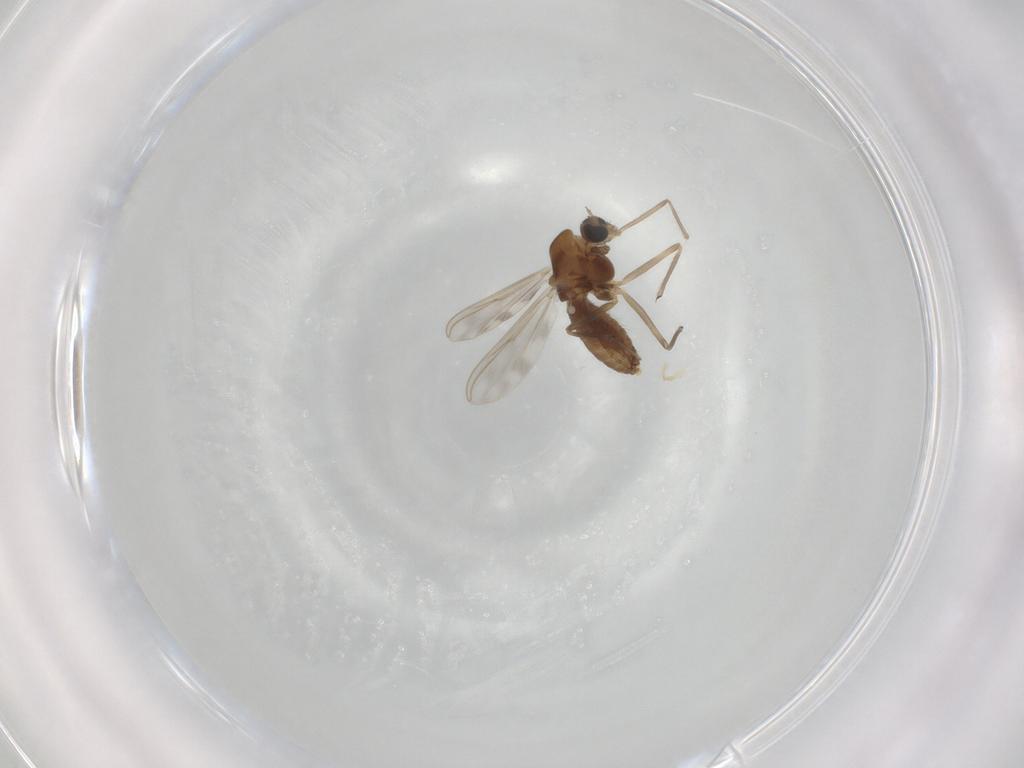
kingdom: Animalia
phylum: Arthropoda
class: Insecta
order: Diptera
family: Chironomidae
